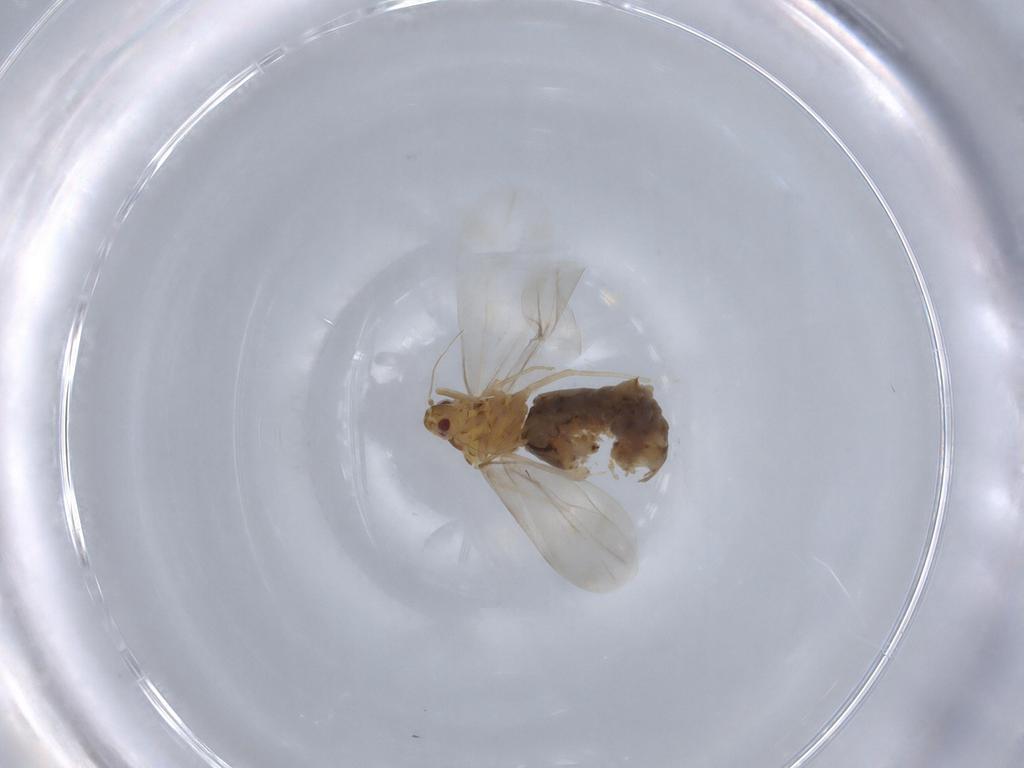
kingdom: Animalia
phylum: Arthropoda
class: Insecta
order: Hemiptera
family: Aleyrodidae
